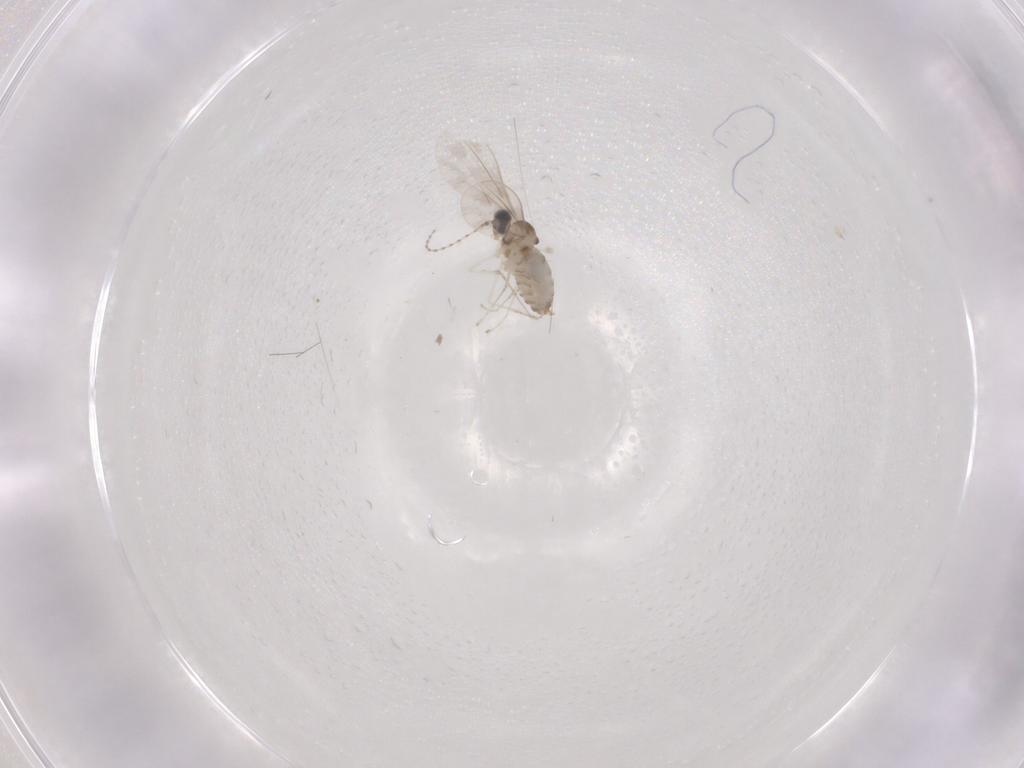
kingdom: Animalia
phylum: Arthropoda
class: Insecta
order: Diptera
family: Cecidomyiidae
